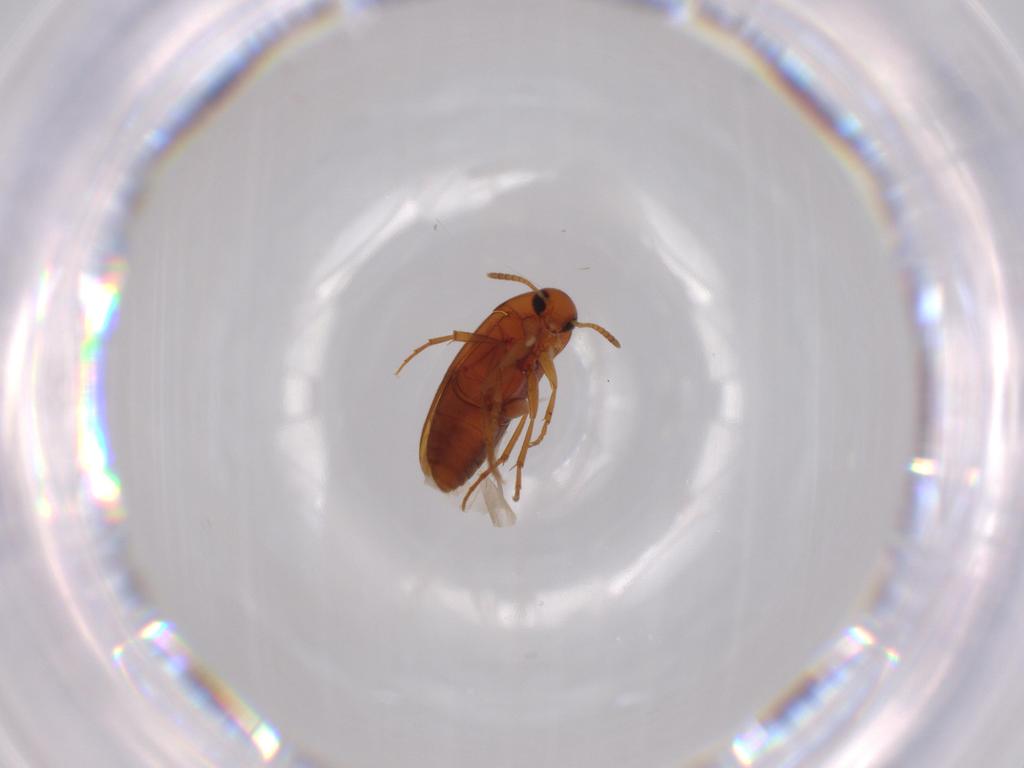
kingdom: Animalia
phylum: Arthropoda
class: Insecta
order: Coleoptera
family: Scraptiidae
